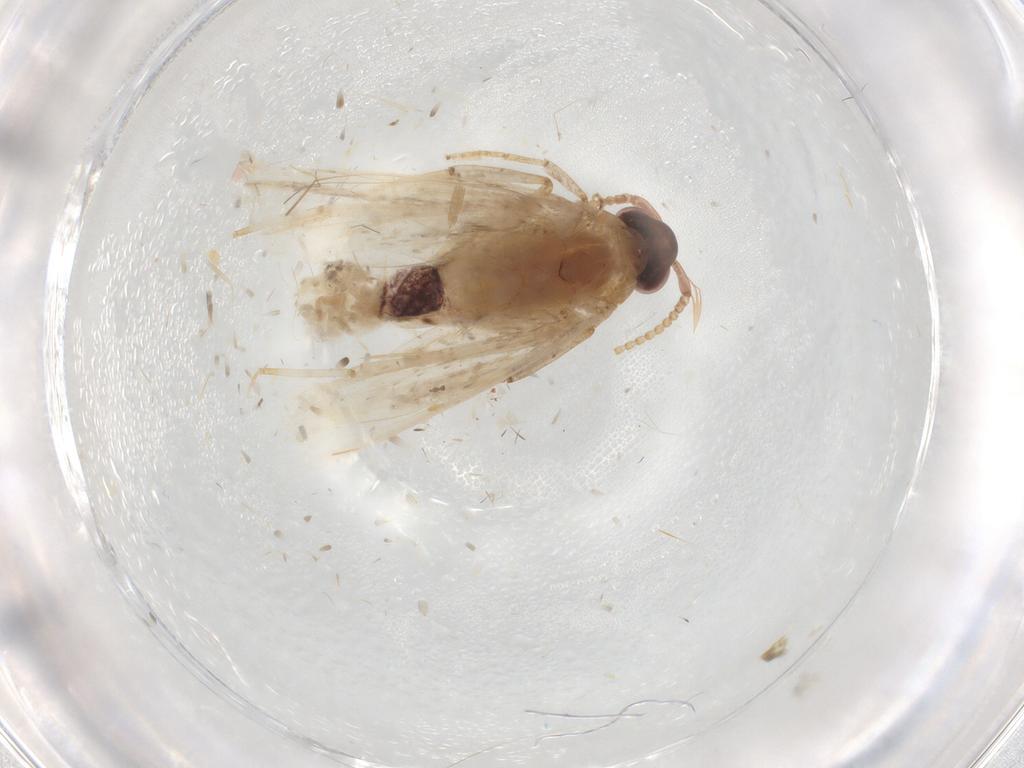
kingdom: Animalia
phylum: Arthropoda
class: Insecta
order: Lepidoptera
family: Lecithoceridae
